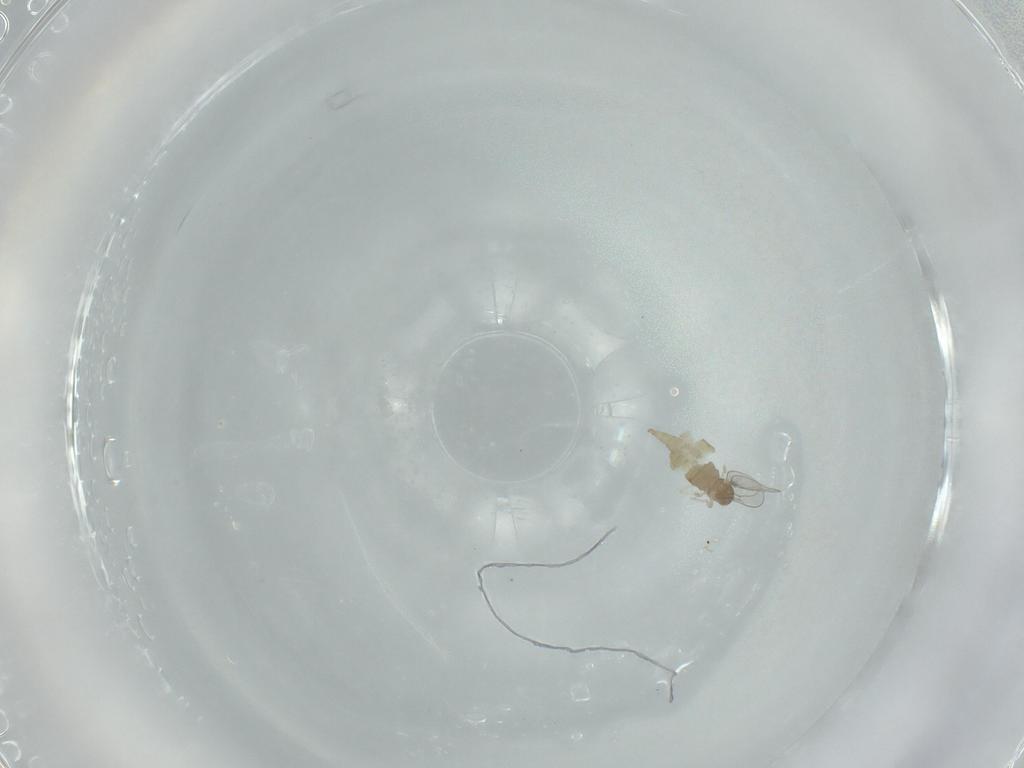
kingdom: Animalia
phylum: Arthropoda
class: Insecta
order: Diptera
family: Cecidomyiidae
